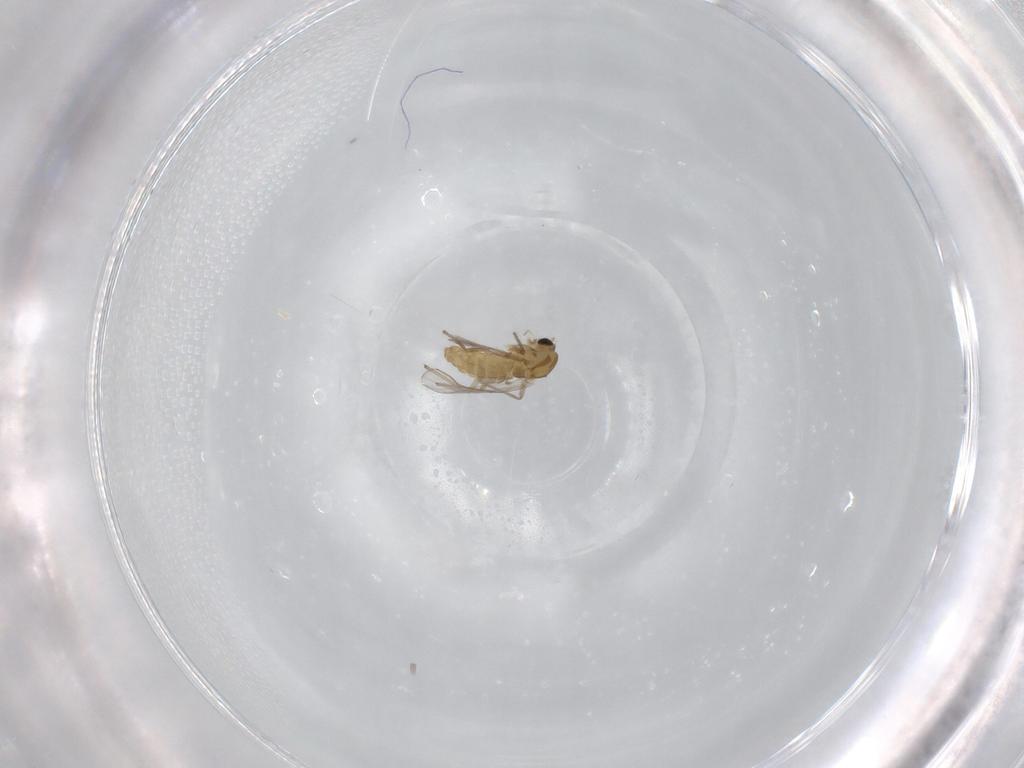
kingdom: Animalia
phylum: Arthropoda
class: Insecta
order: Diptera
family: Chironomidae
